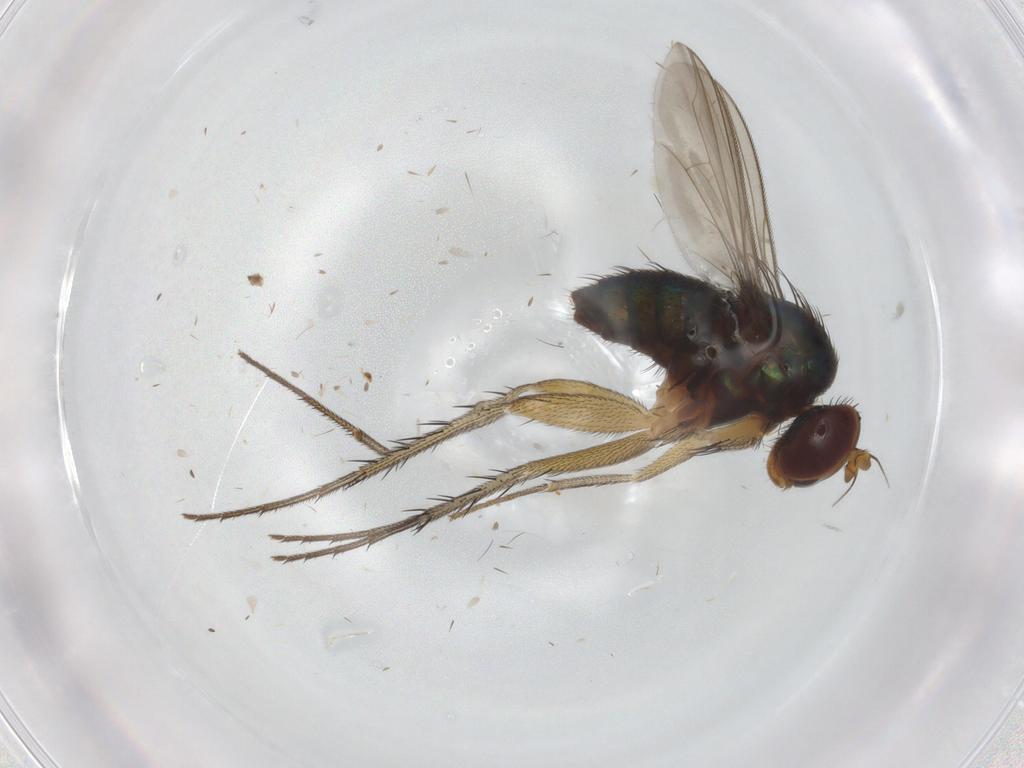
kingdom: Animalia
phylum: Arthropoda
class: Insecta
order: Diptera
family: Dolichopodidae
